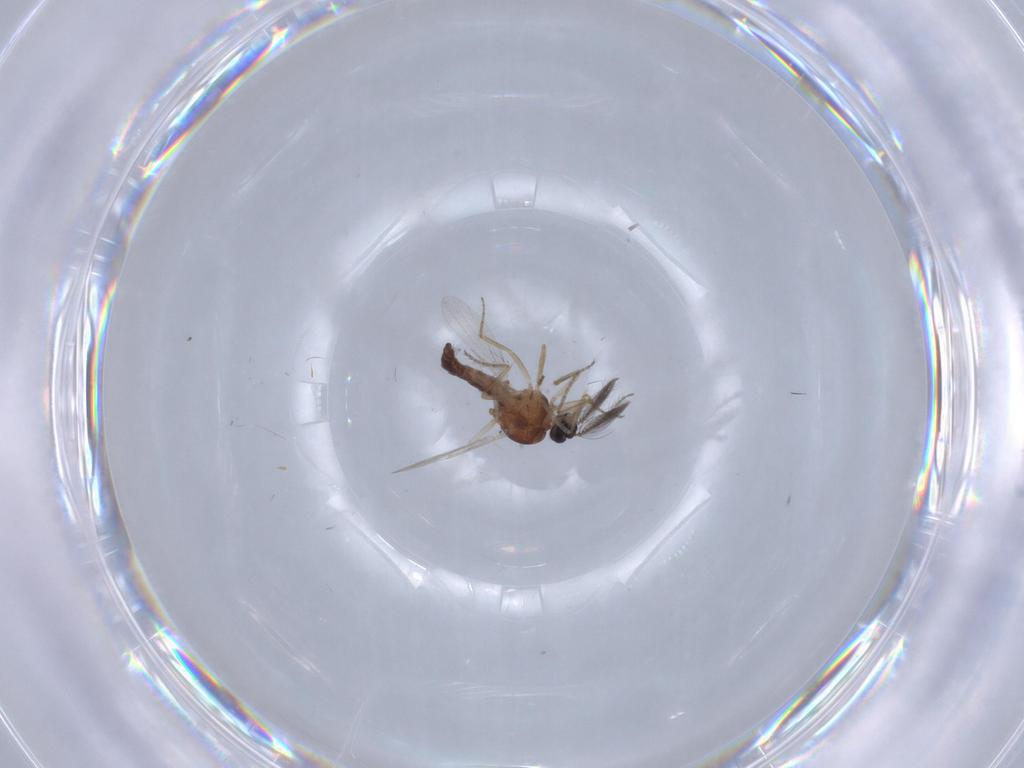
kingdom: Animalia
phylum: Arthropoda
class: Insecta
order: Diptera
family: Ceratopogonidae
